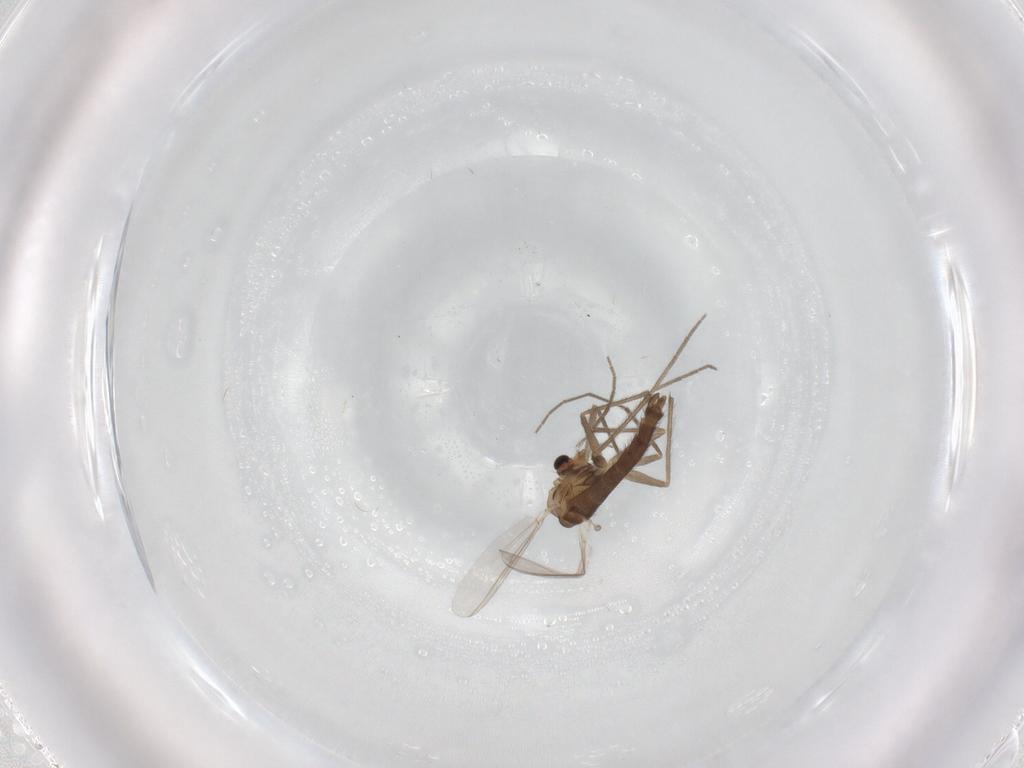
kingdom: Animalia
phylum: Arthropoda
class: Insecta
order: Diptera
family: Chironomidae
